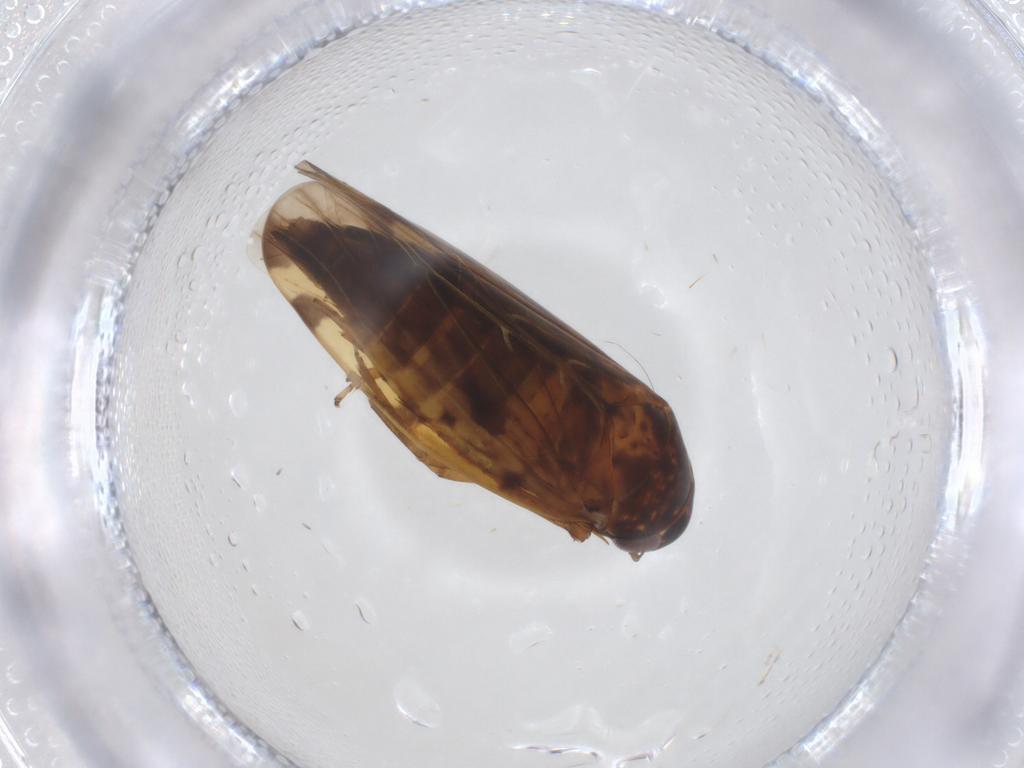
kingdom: Animalia
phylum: Arthropoda
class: Insecta
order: Hemiptera
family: Cicadellidae
